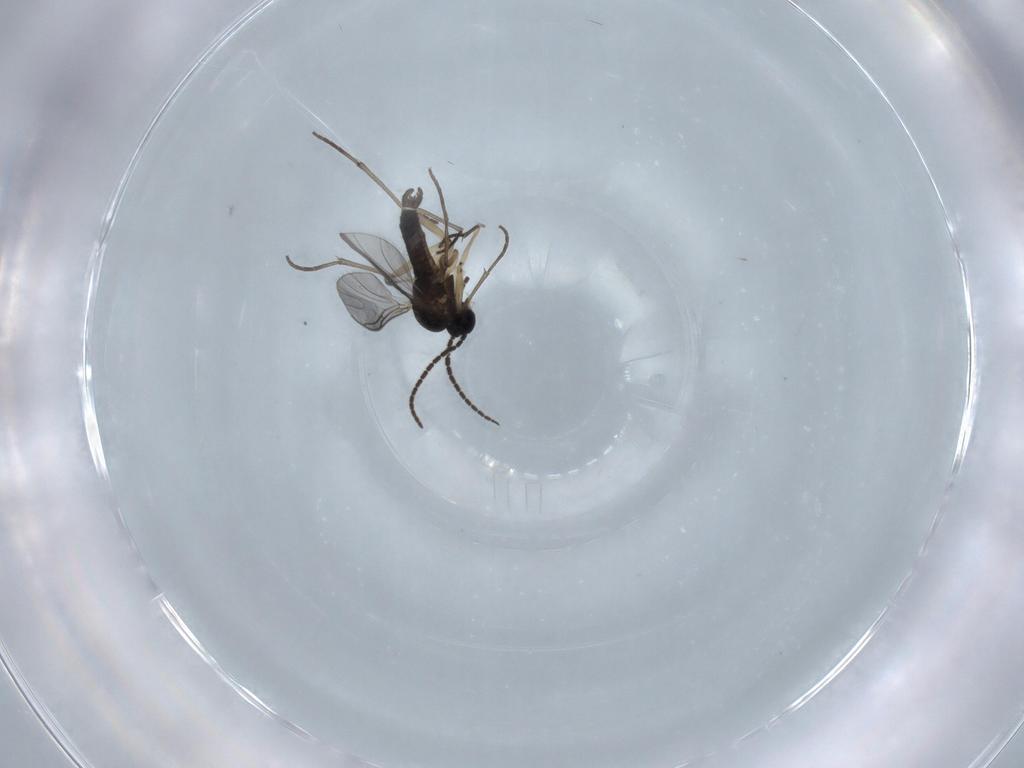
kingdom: Animalia
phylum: Arthropoda
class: Insecta
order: Diptera
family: Sciaridae
